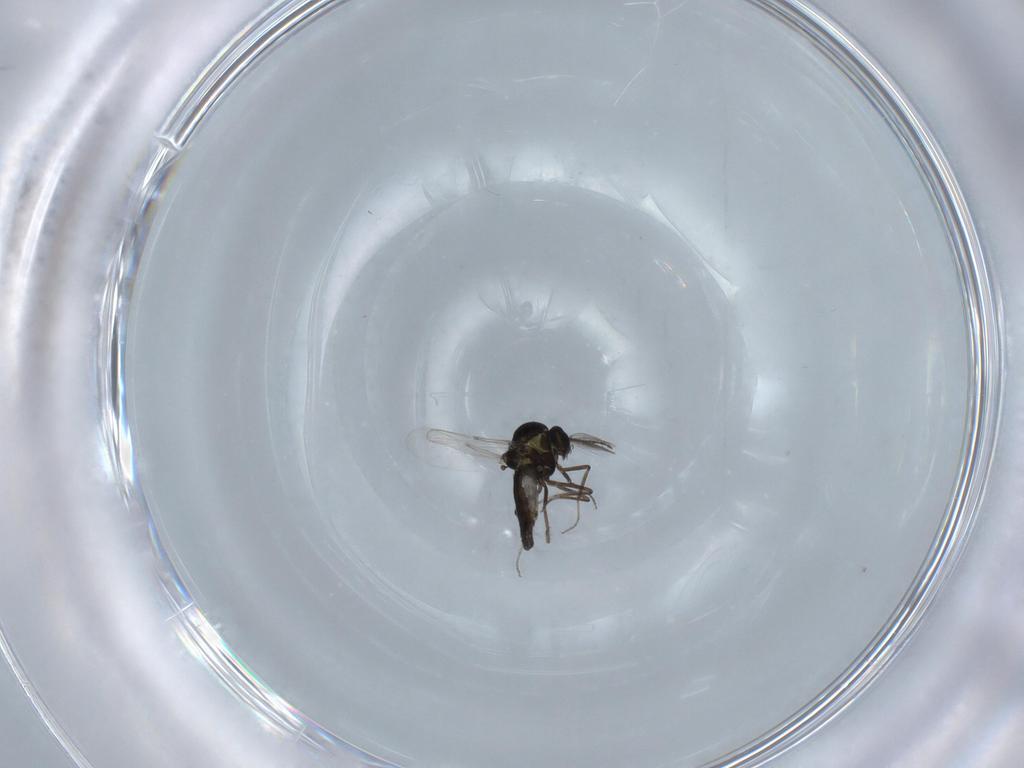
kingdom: Animalia
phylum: Arthropoda
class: Insecta
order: Diptera
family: Ceratopogonidae
